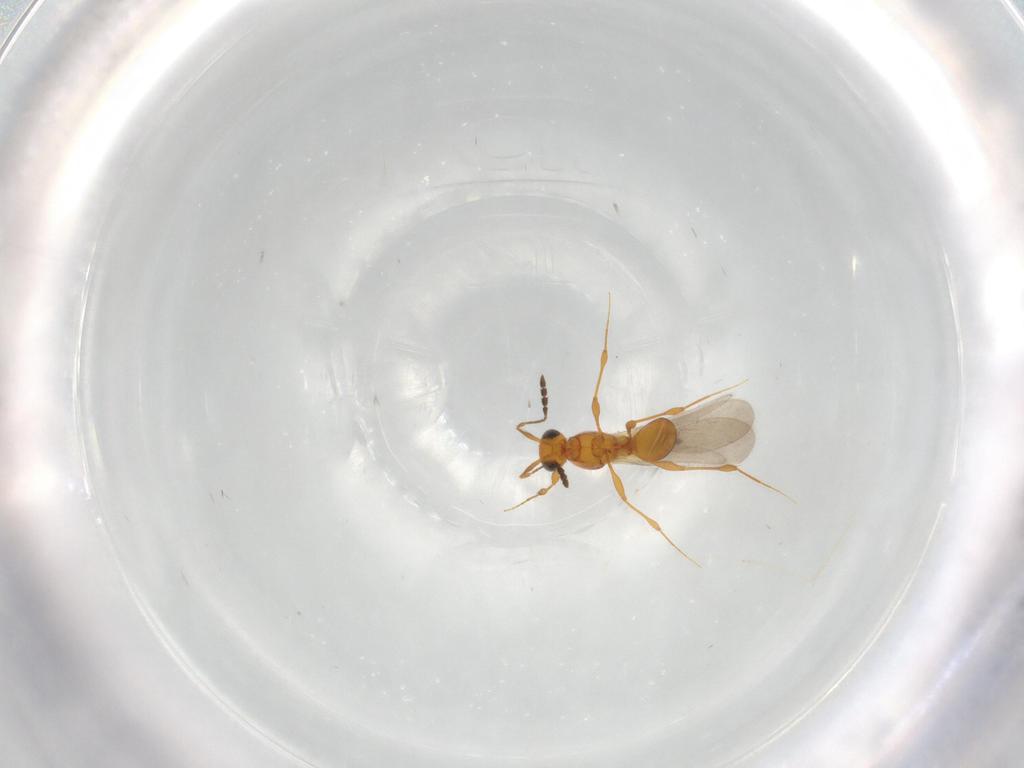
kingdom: Animalia
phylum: Arthropoda
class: Insecta
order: Hymenoptera
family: Platygastridae
